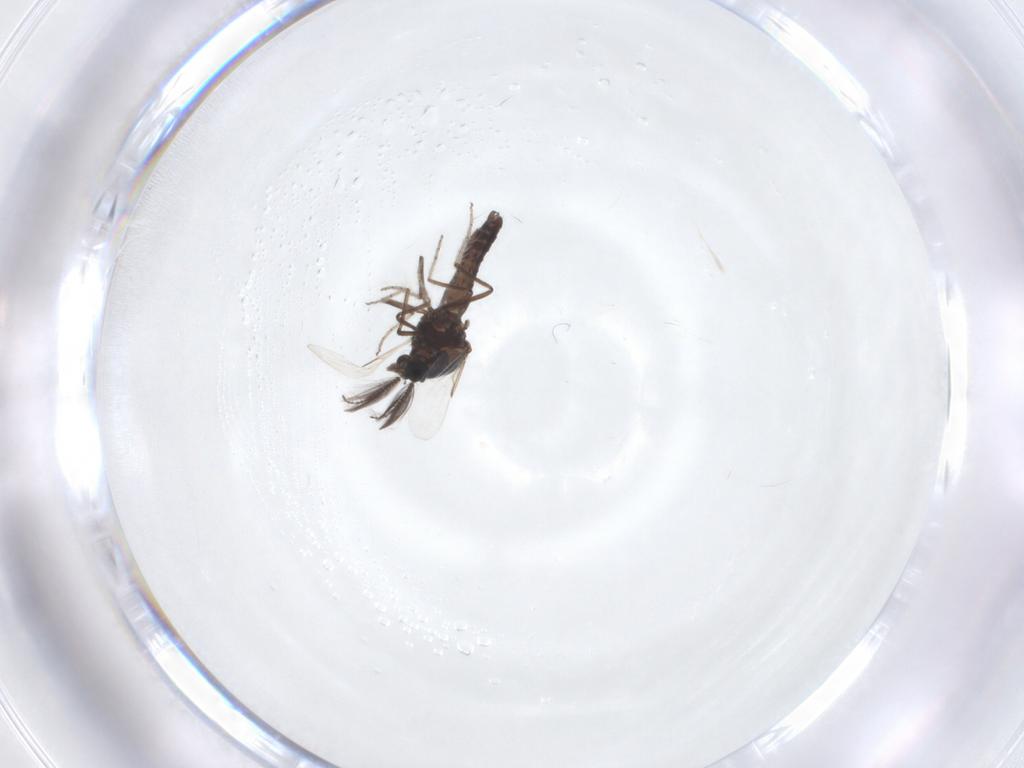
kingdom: Animalia
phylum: Arthropoda
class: Insecta
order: Diptera
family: Ceratopogonidae
